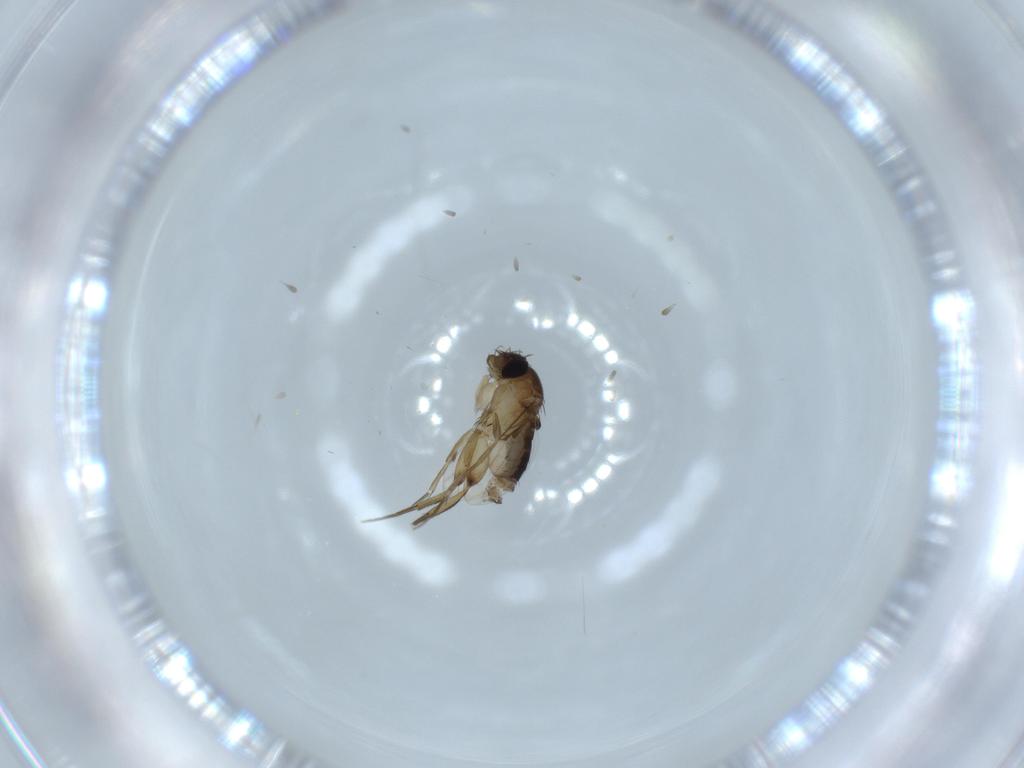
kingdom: Animalia
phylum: Arthropoda
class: Insecta
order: Diptera
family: Phoridae
